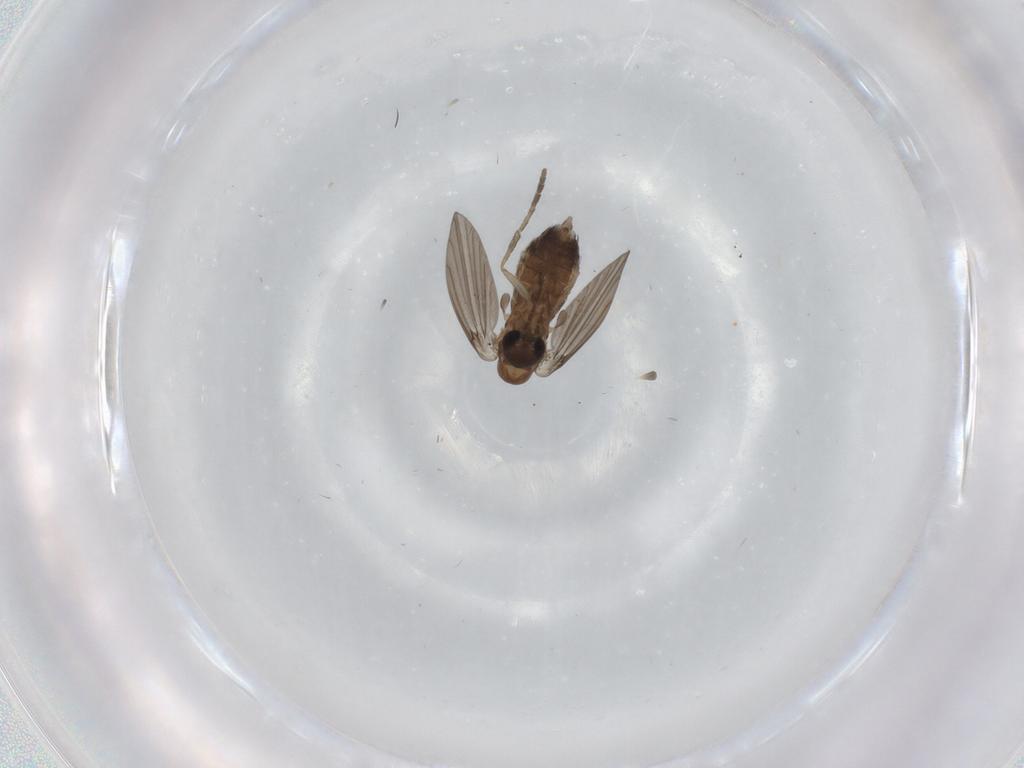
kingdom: Animalia
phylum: Arthropoda
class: Insecta
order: Diptera
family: Psychodidae
